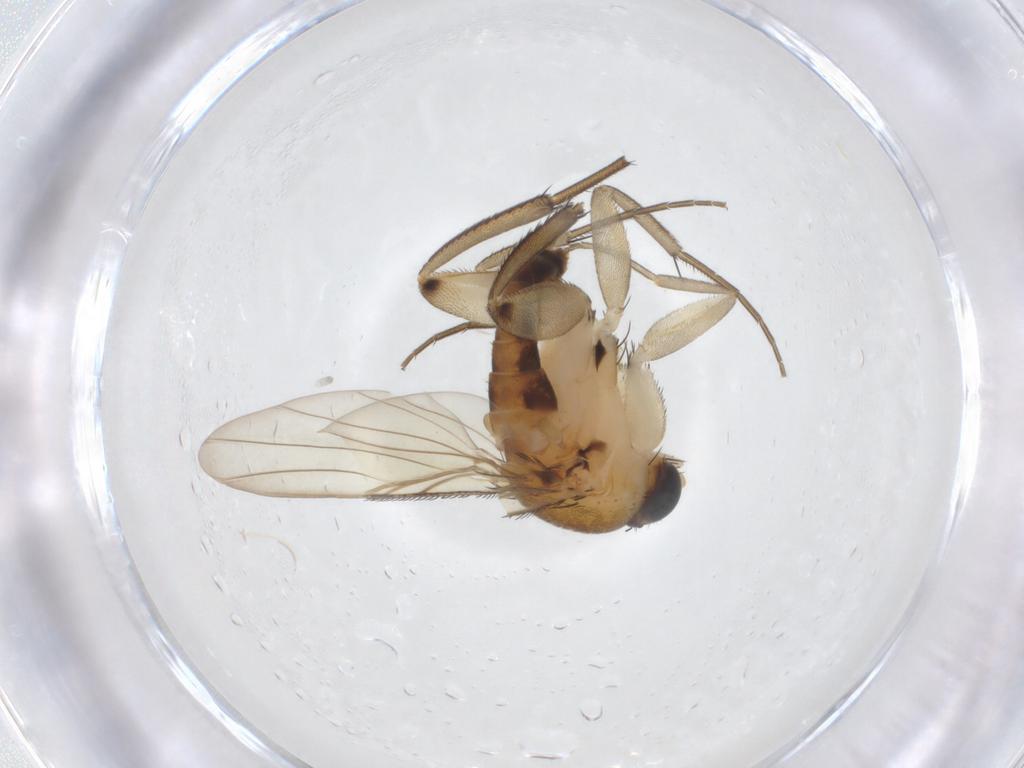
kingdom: Animalia
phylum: Arthropoda
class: Insecta
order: Diptera
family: Phoridae
